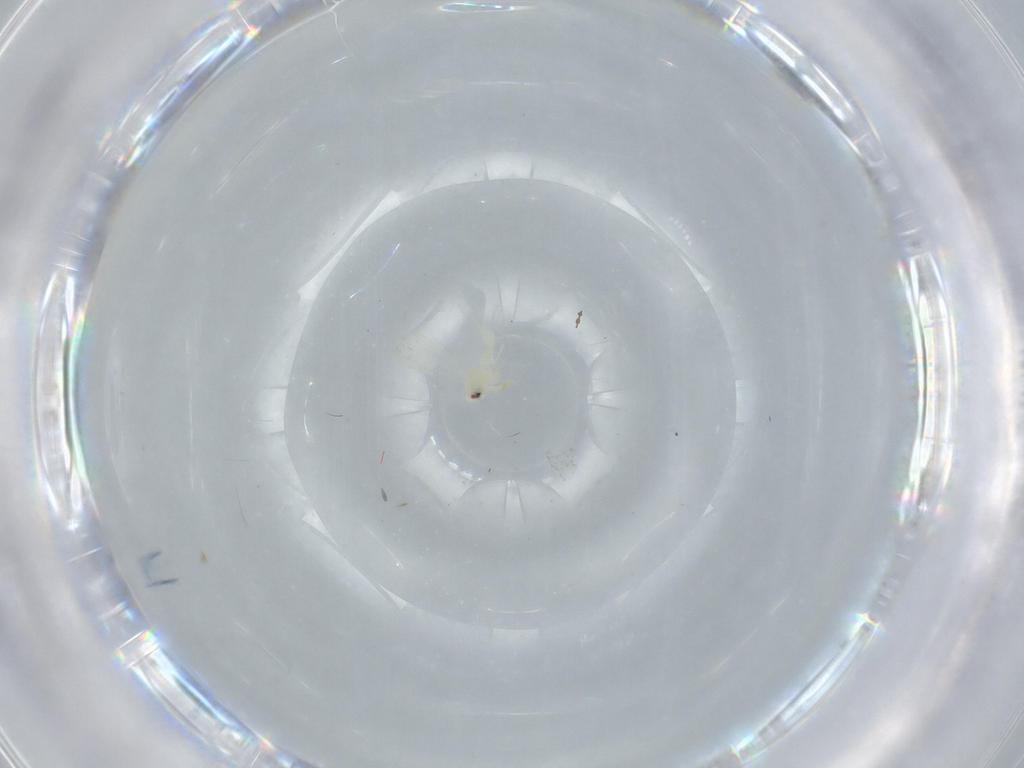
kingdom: Animalia
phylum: Arthropoda
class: Insecta
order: Diptera
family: Cecidomyiidae
